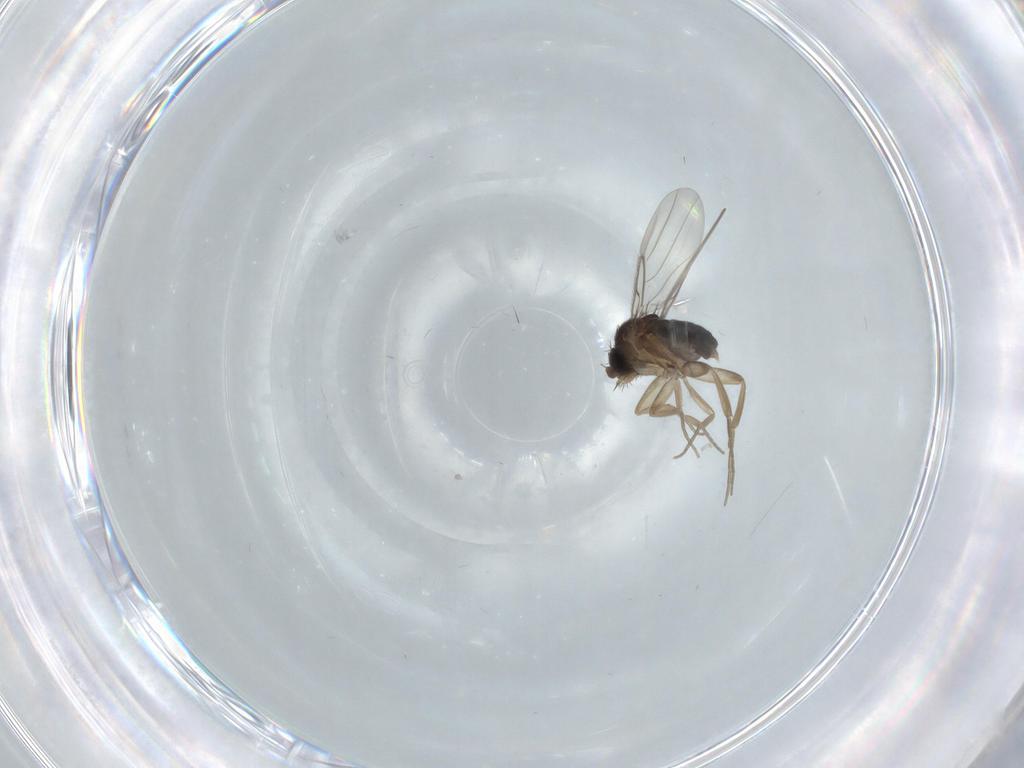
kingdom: Animalia
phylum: Arthropoda
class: Insecta
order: Diptera
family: Phoridae
